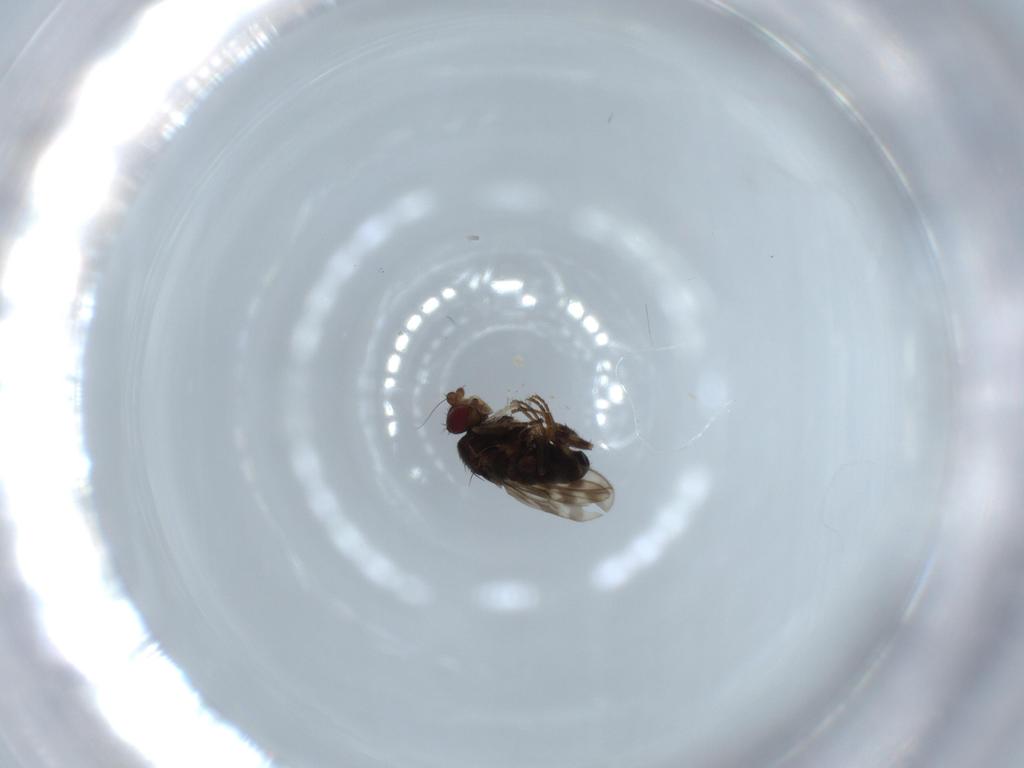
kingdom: Animalia
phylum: Arthropoda
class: Insecta
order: Diptera
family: Sphaeroceridae
